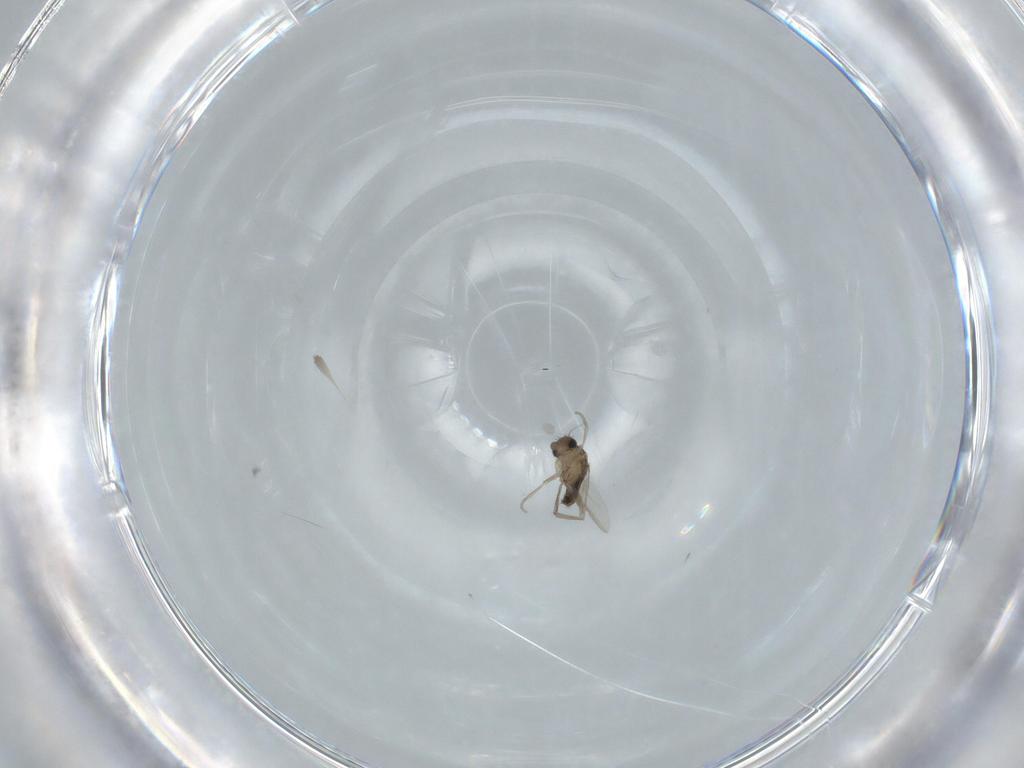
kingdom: Animalia
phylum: Arthropoda
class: Insecta
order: Diptera
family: Phoridae
